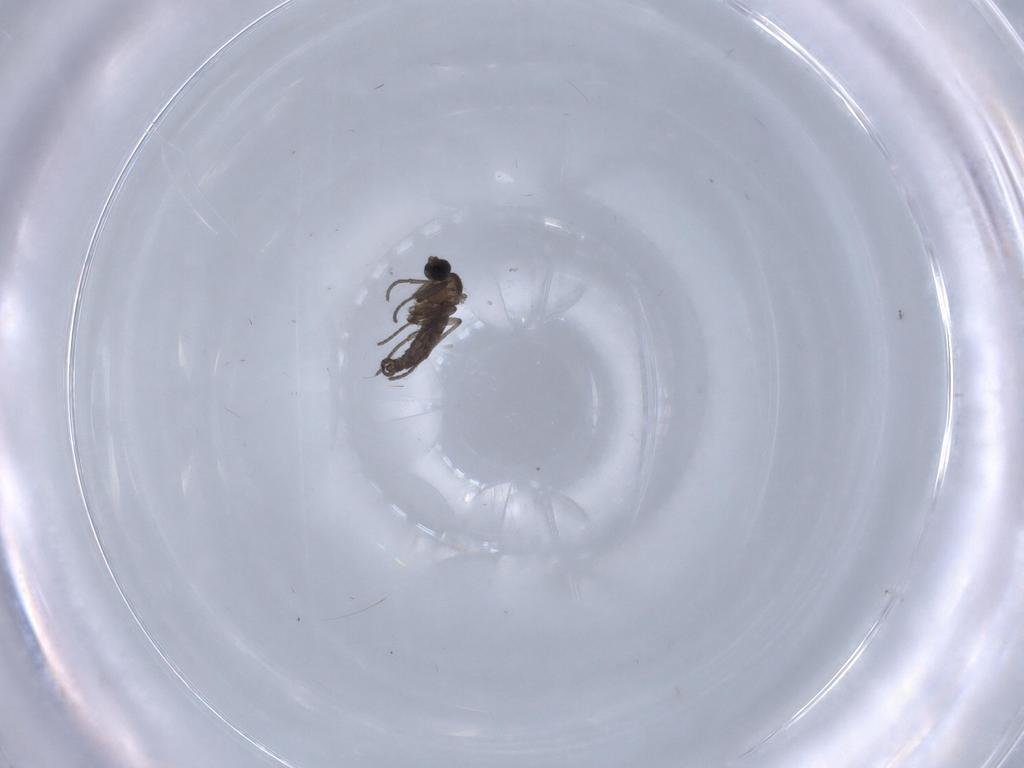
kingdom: Animalia
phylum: Arthropoda
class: Insecta
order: Diptera
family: Chironomidae
